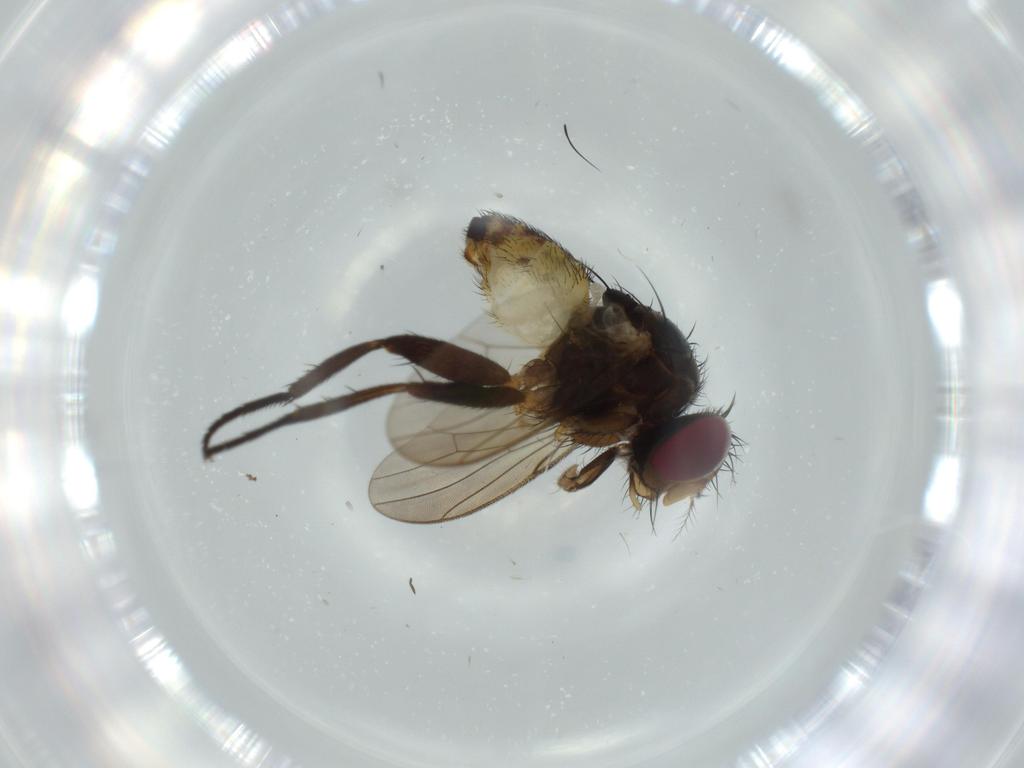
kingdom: Animalia
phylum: Arthropoda
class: Insecta
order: Diptera
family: Anthomyiidae
